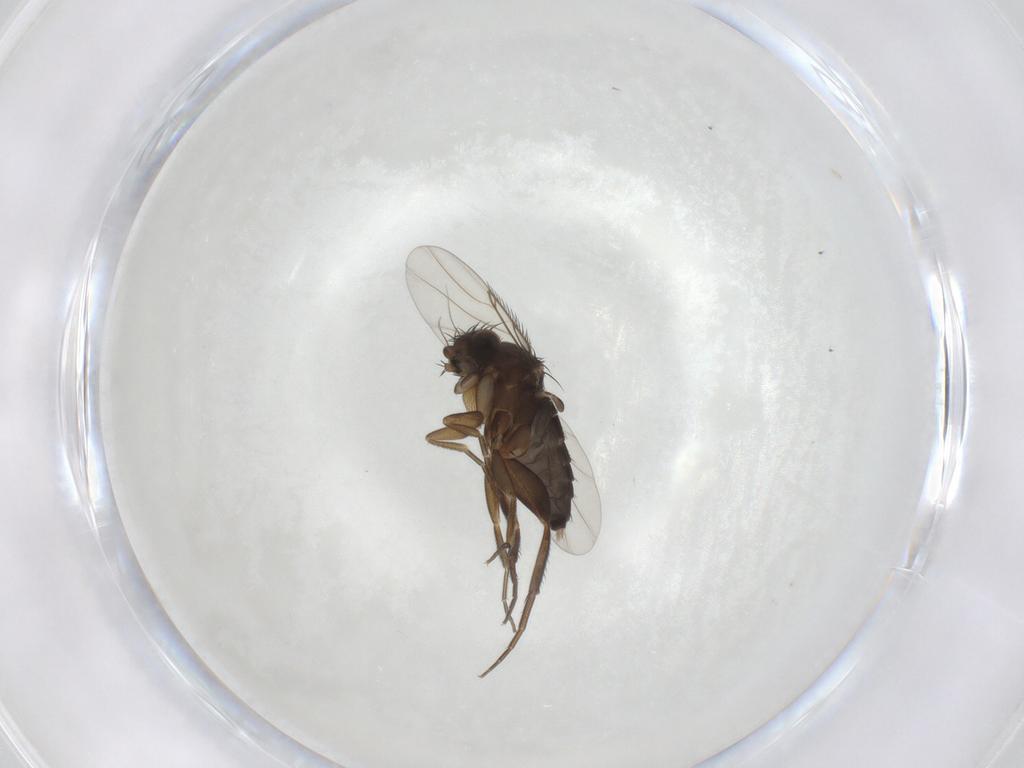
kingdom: Animalia
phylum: Arthropoda
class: Insecta
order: Diptera
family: Phoridae
